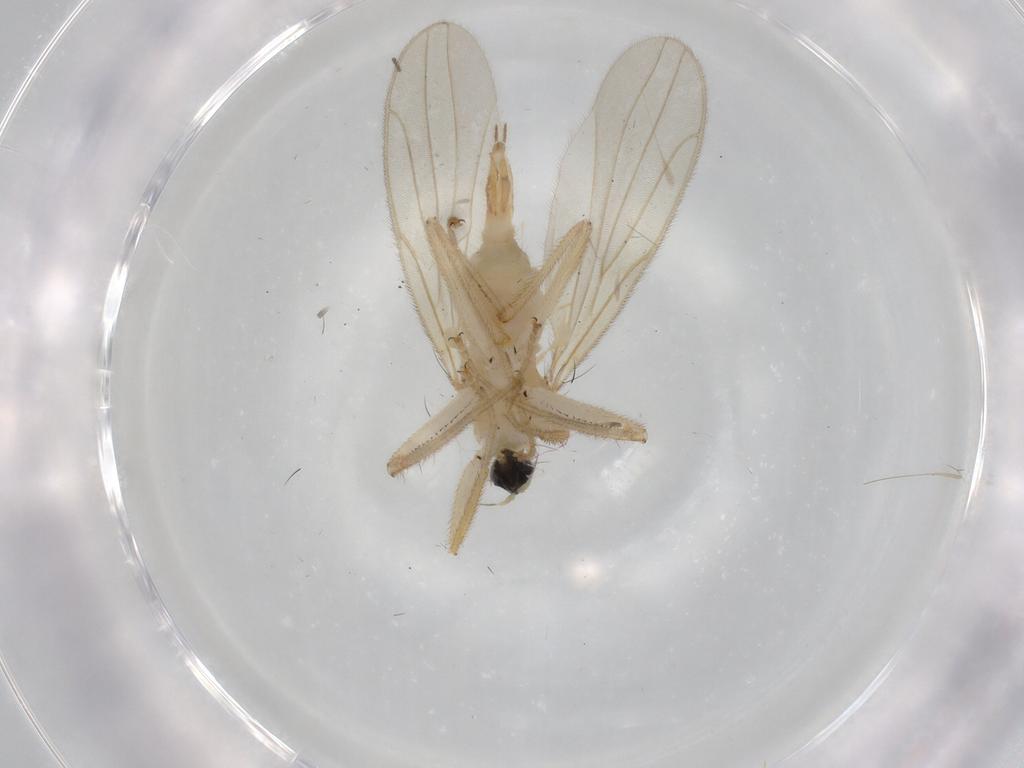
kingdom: Animalia
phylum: Arthropoda
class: Insecta
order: Diptera
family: Hybotidae
